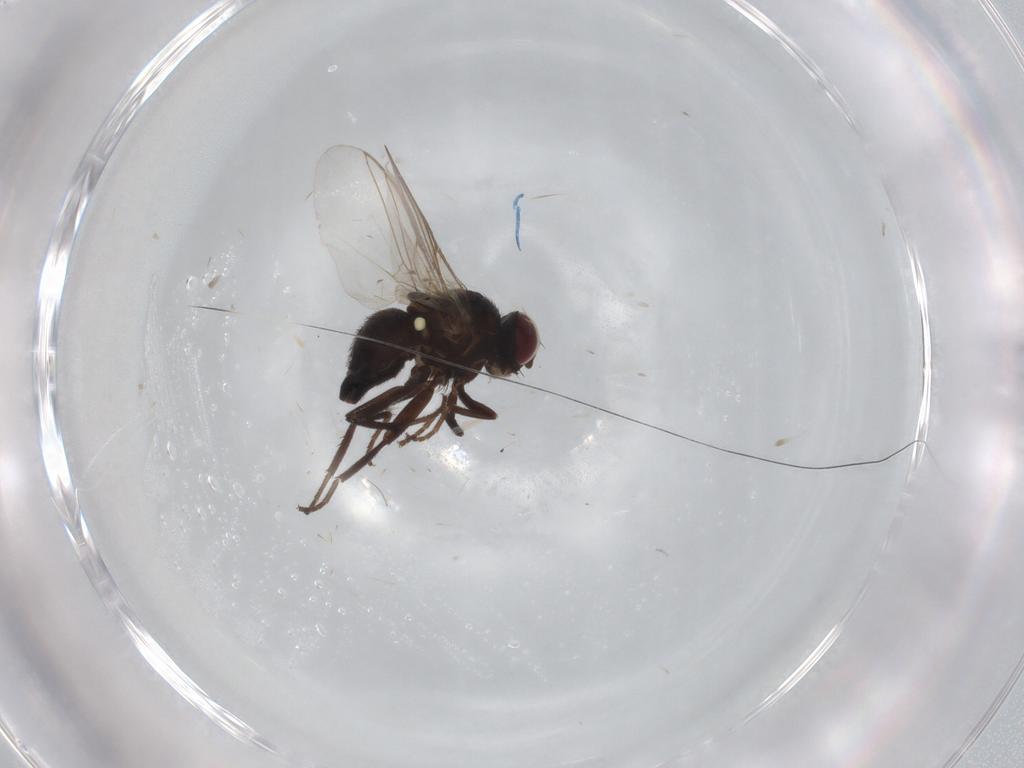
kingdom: Animalia
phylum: Arthropoda
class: Insecta
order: Diptera
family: Agromyzidae
